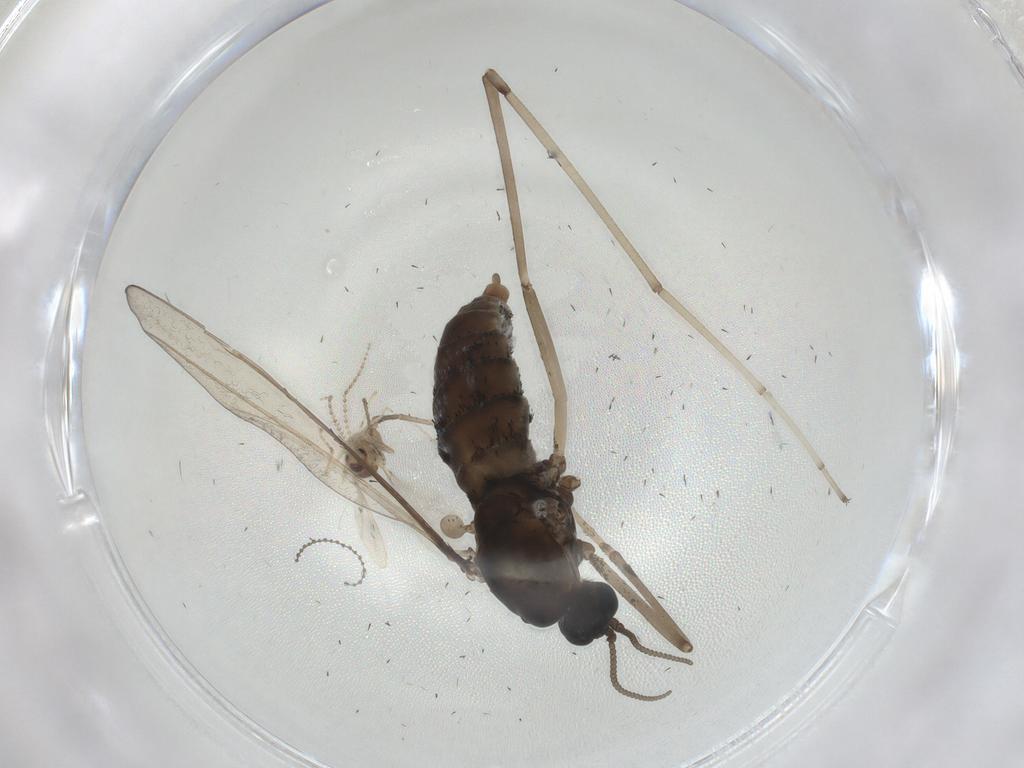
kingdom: Animalia
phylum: Arthropoda
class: Insecta
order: Diptera
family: Cecidomyiidae
